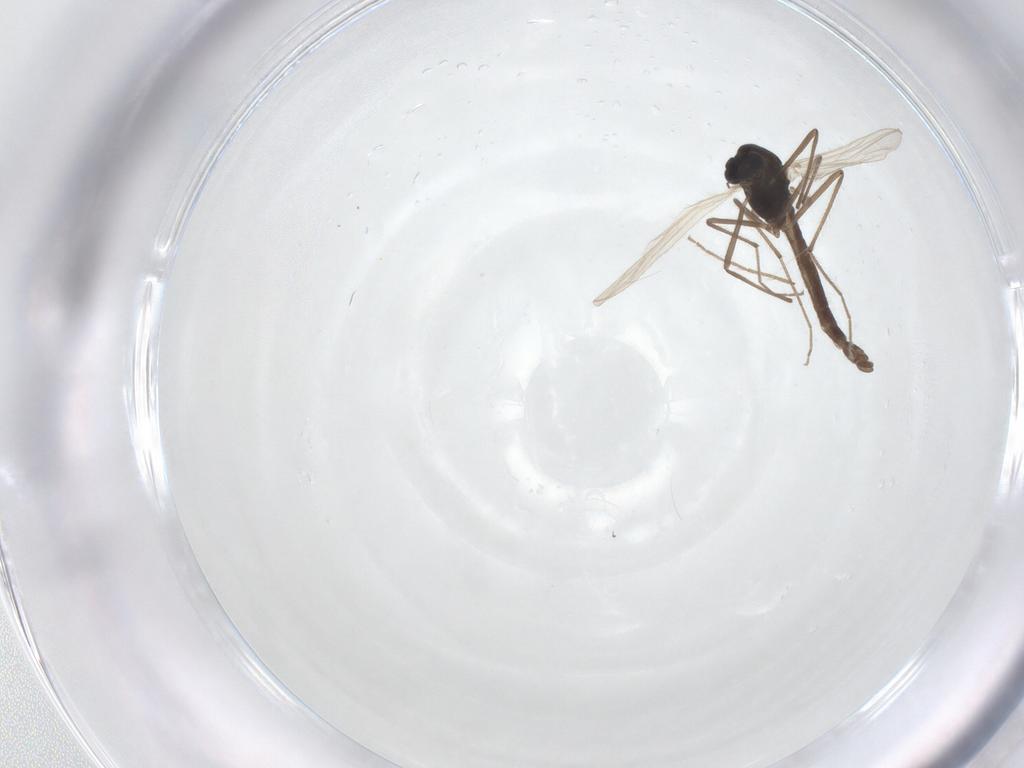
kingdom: Animalia
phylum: Arthropoda
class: Insecta
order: Diptera
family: Chironomidae
